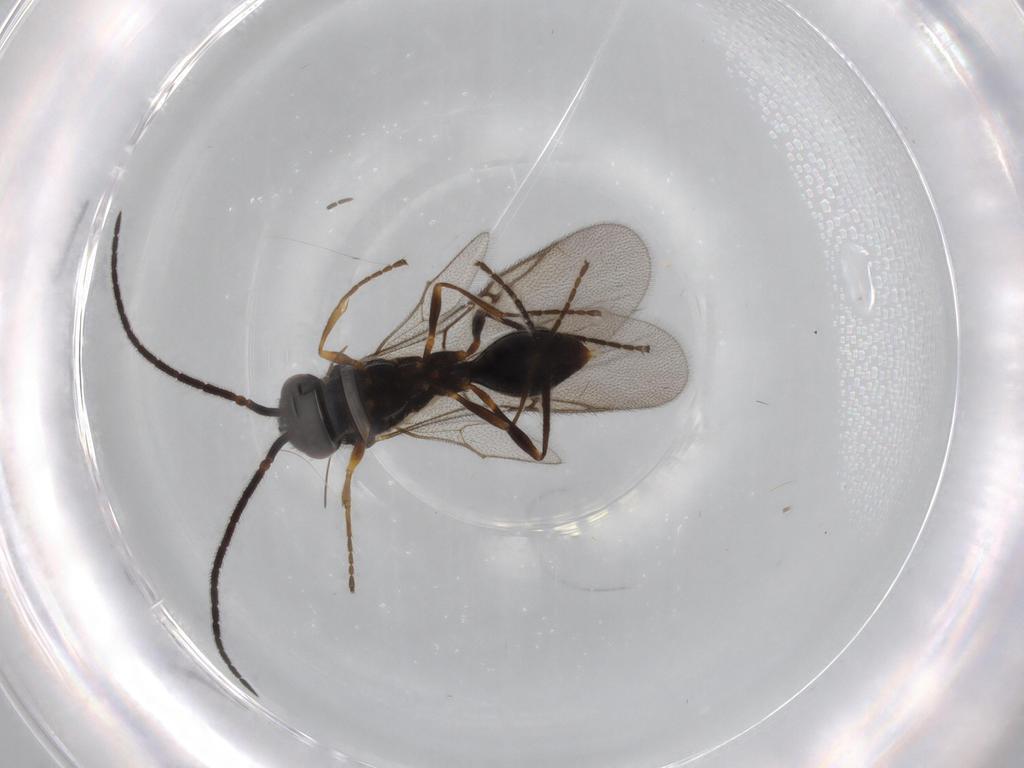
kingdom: Animalia
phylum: Arthropoda
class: Insecta
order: Hymenoptera
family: Diapriidae
